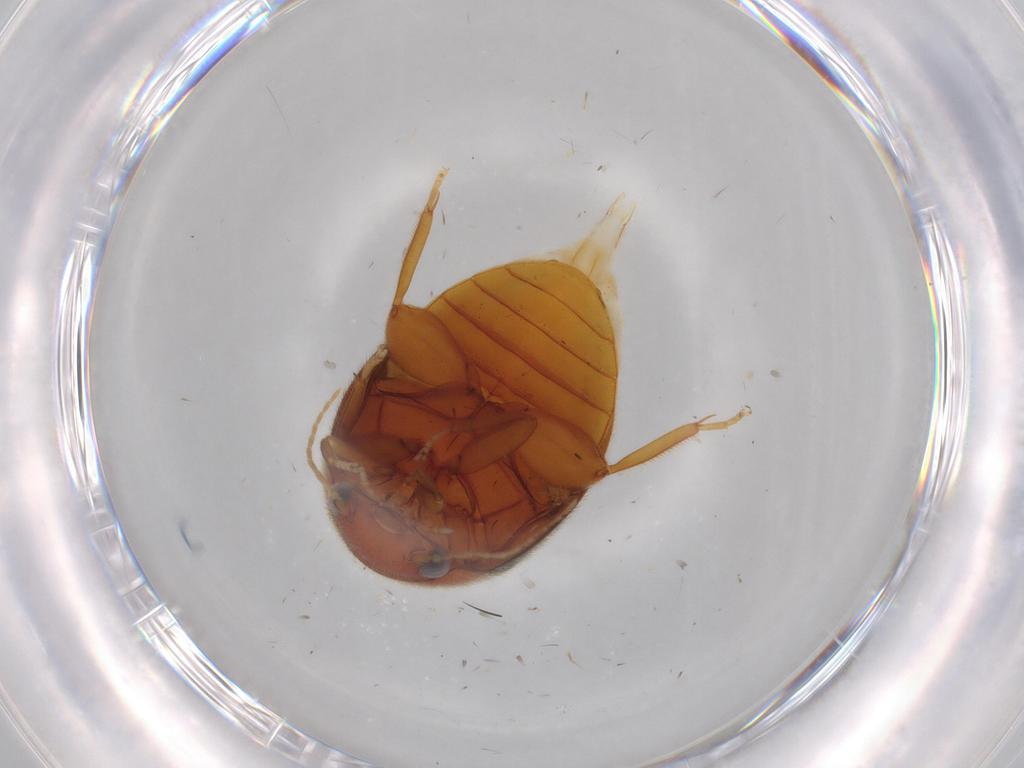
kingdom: Animalia
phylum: Arthropoda
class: Insecta
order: Coleoptera
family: Scirtidae
